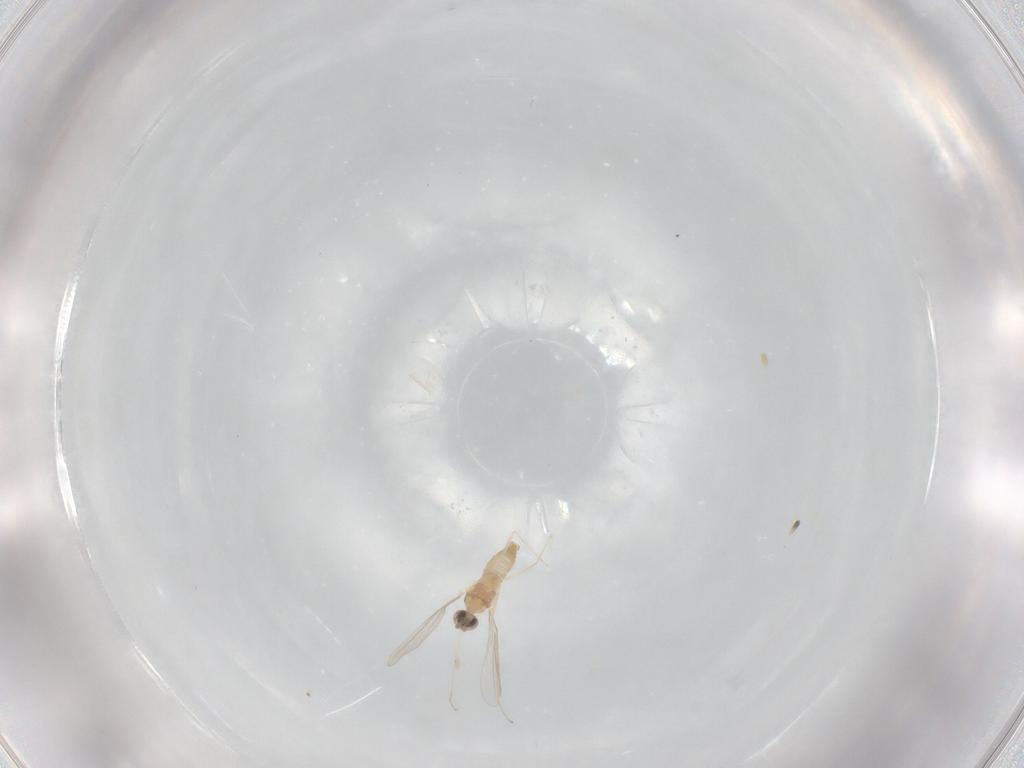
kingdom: Animalia
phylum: Arthropoda
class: Insecta
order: Diptera
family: Cecidomyiidae
